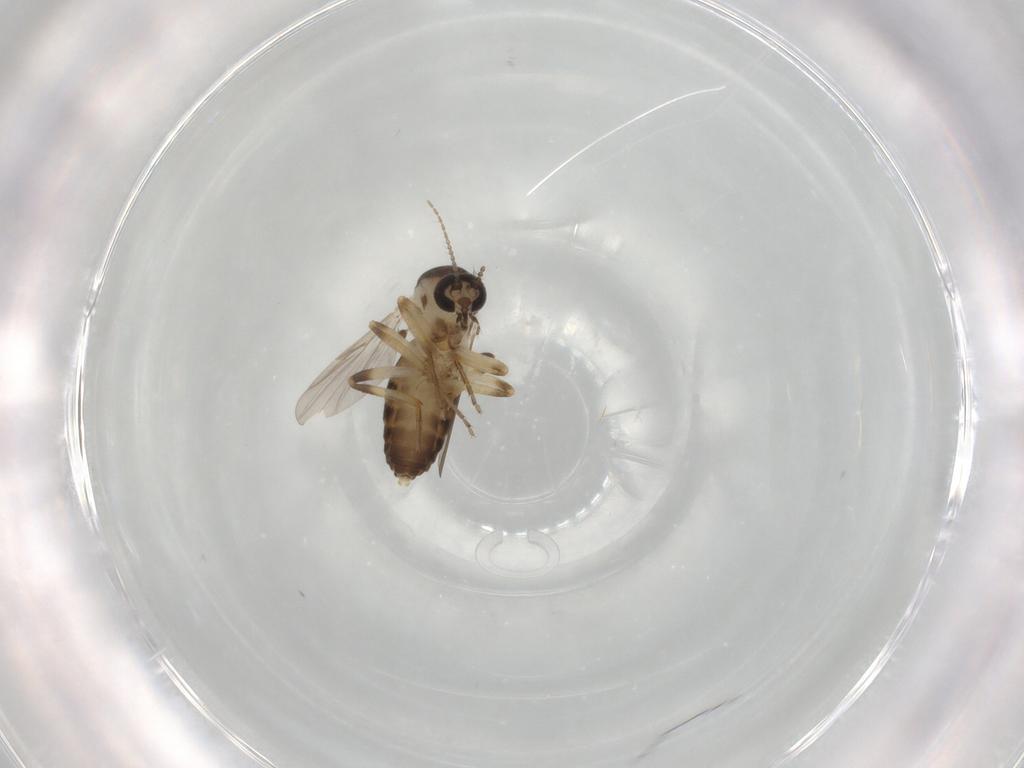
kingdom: Animalia
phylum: Arthropoda
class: Insecta
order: Diptera
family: Ceratopogonidae
